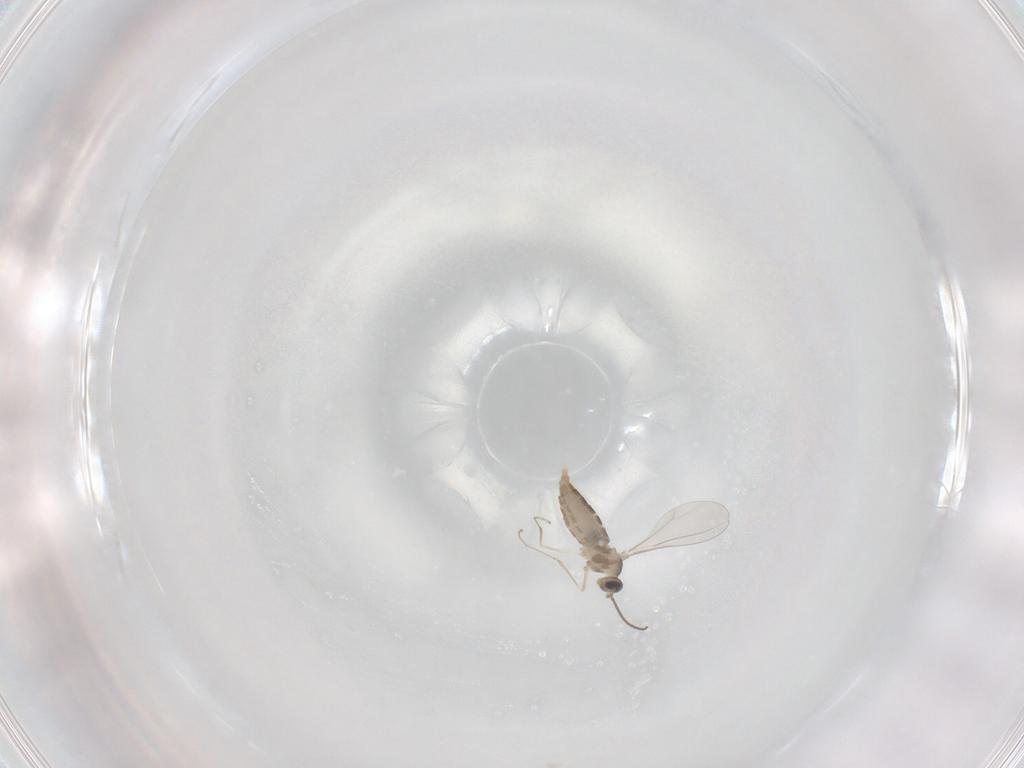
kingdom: Animalia
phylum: Arthropoda
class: Insecta
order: Diptera
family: Cecidomyiidae
